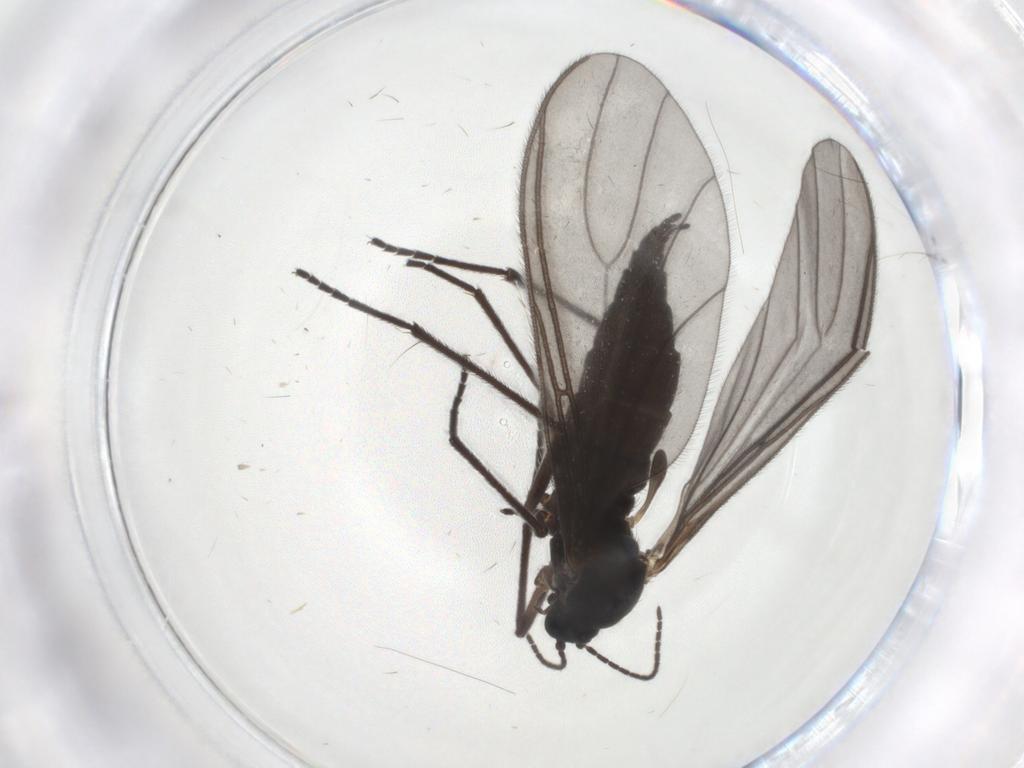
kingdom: Animalia
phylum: Arthropoda
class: Insecta
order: Diptera
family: Sciaridae
